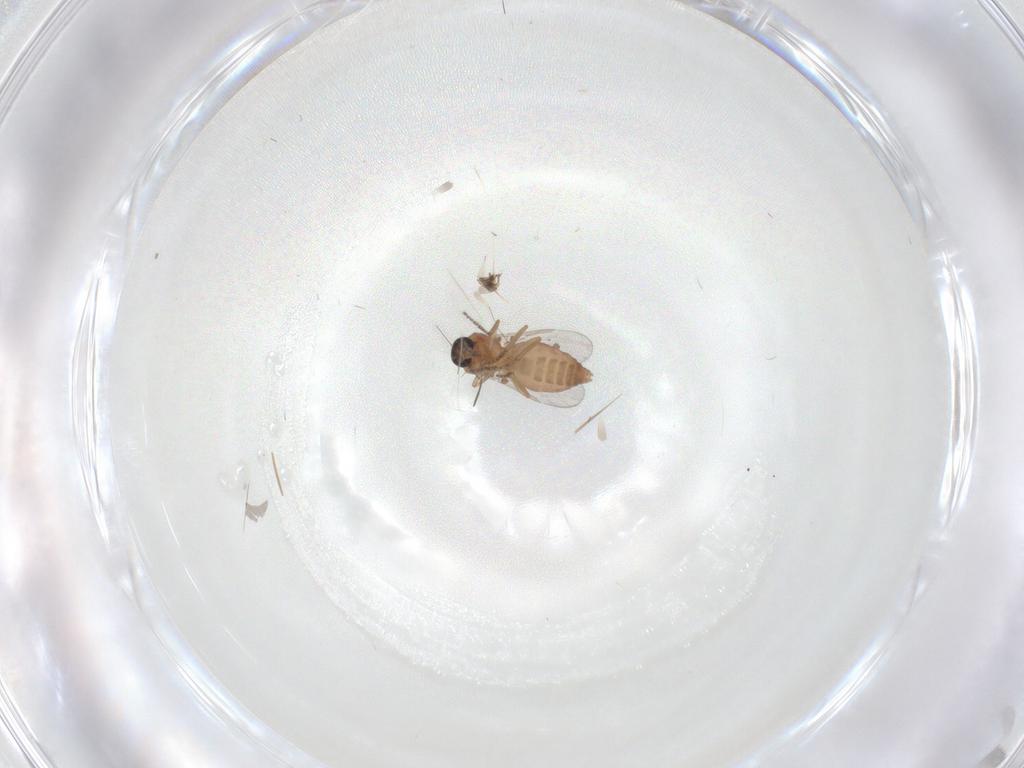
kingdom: Animalia
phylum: Arthropoda
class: Insecta
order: Diptera
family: Ceratopogonidae
